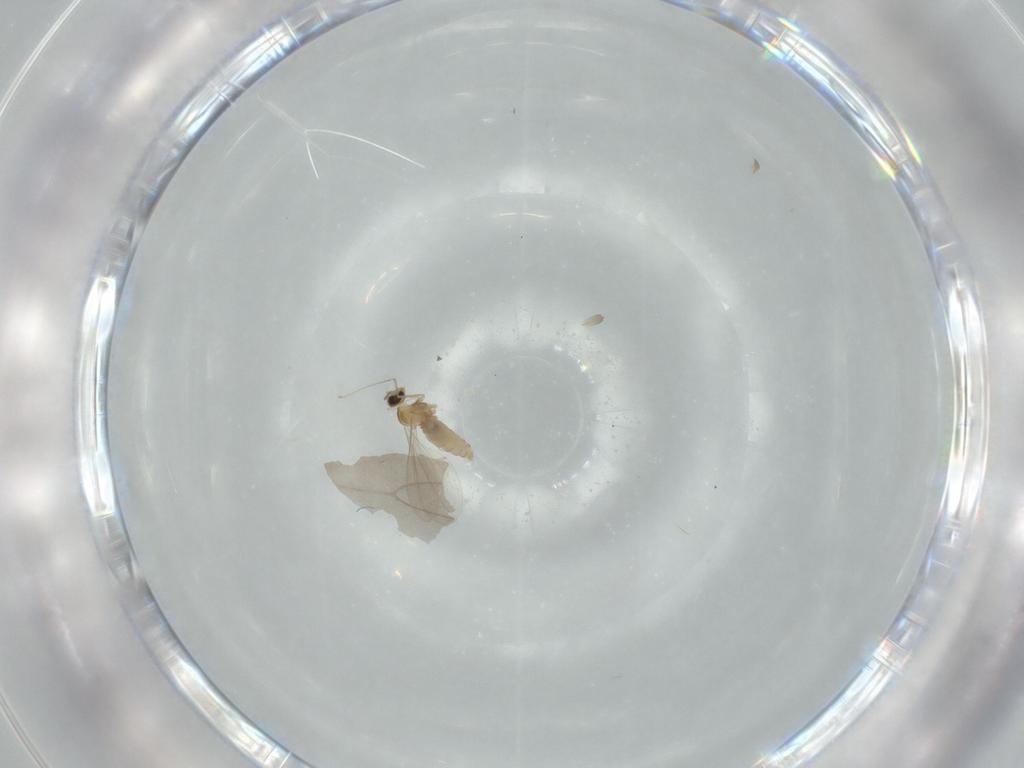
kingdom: Animalia
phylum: Arthropoda
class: Insecta
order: Diptera
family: Cecidomyiidae
